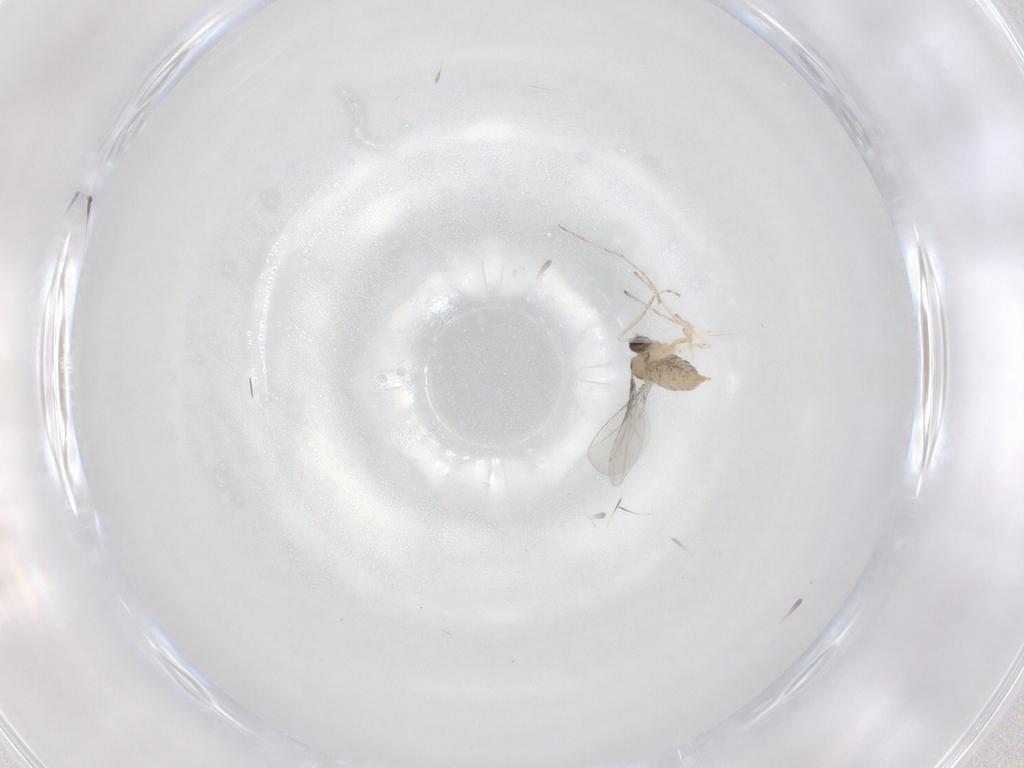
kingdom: Animalia
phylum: Arthropoda
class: Insecta
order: Diptera
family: Cecidomyiidae
